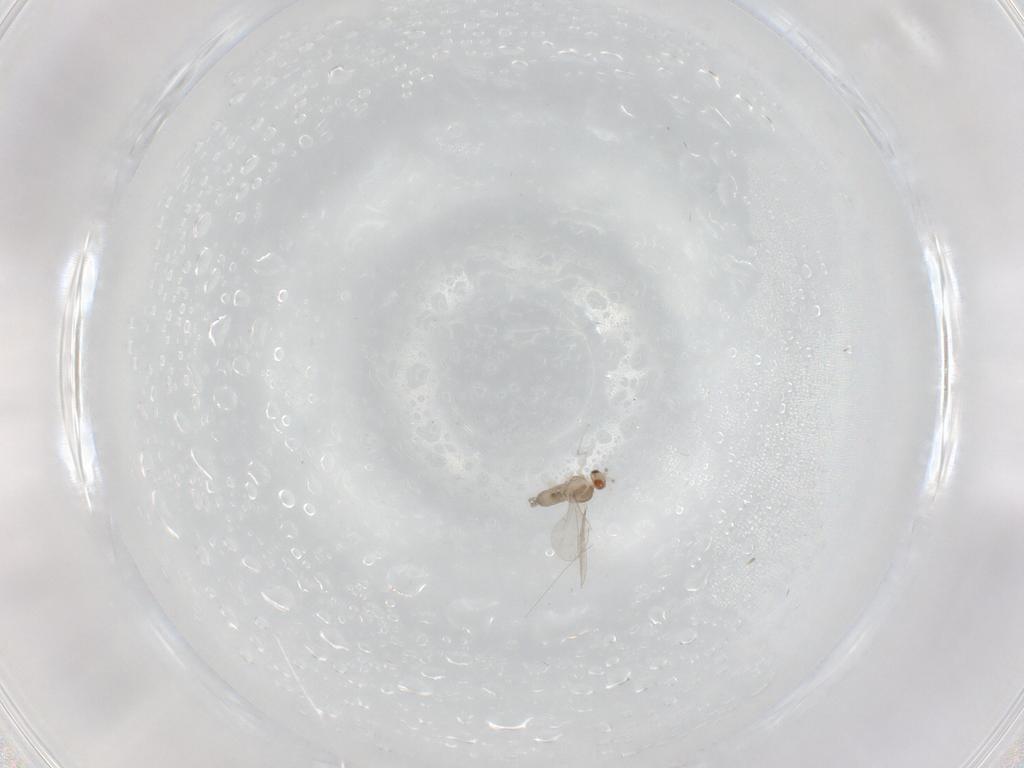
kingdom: Animalia
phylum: Arthropoda
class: Insecta
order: Diptera
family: Cecidomyiidae
